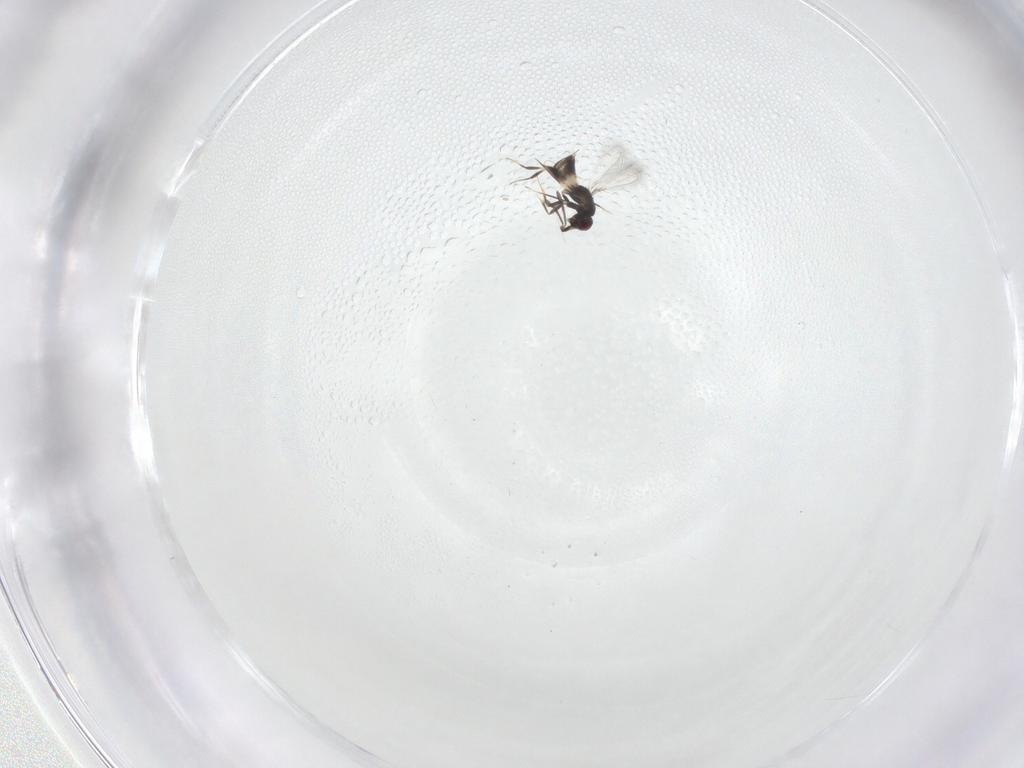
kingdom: Animalia
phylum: Arthropoda
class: Insecta
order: Hymenoptera
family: Mymaridae
